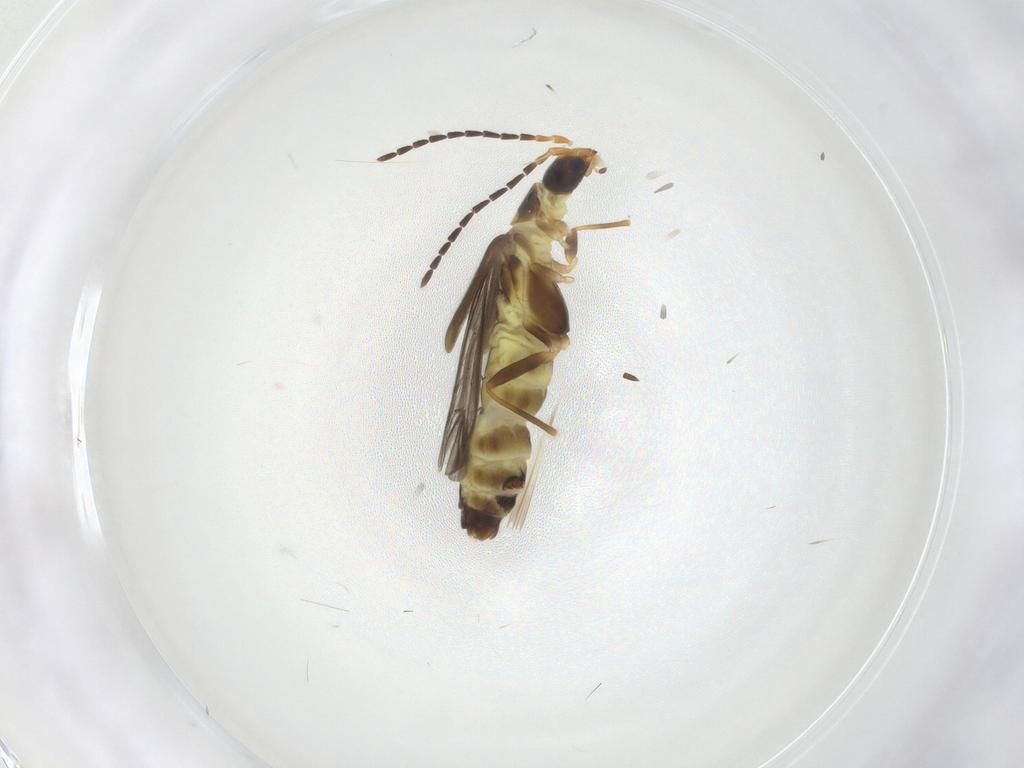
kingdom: Animalia
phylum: Arthropoda
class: Insecta
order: Coleoptera
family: Cantharidae
